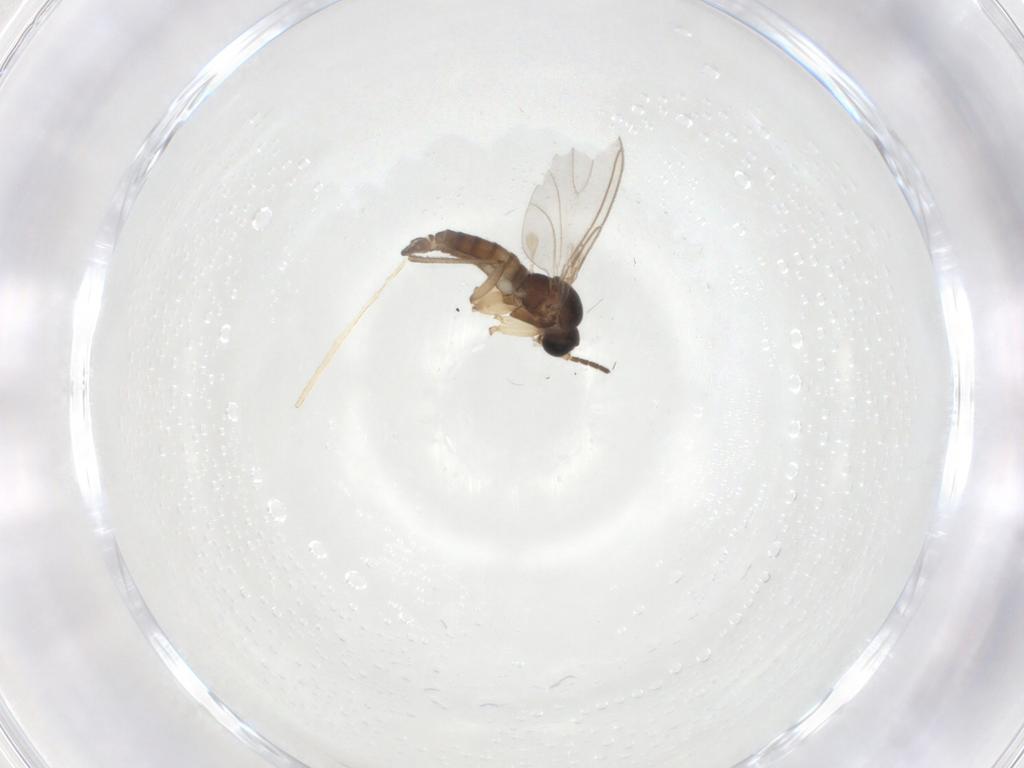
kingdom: Animalia
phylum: Arthropoda
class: Insecta
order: Diptera
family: Sciaridae
